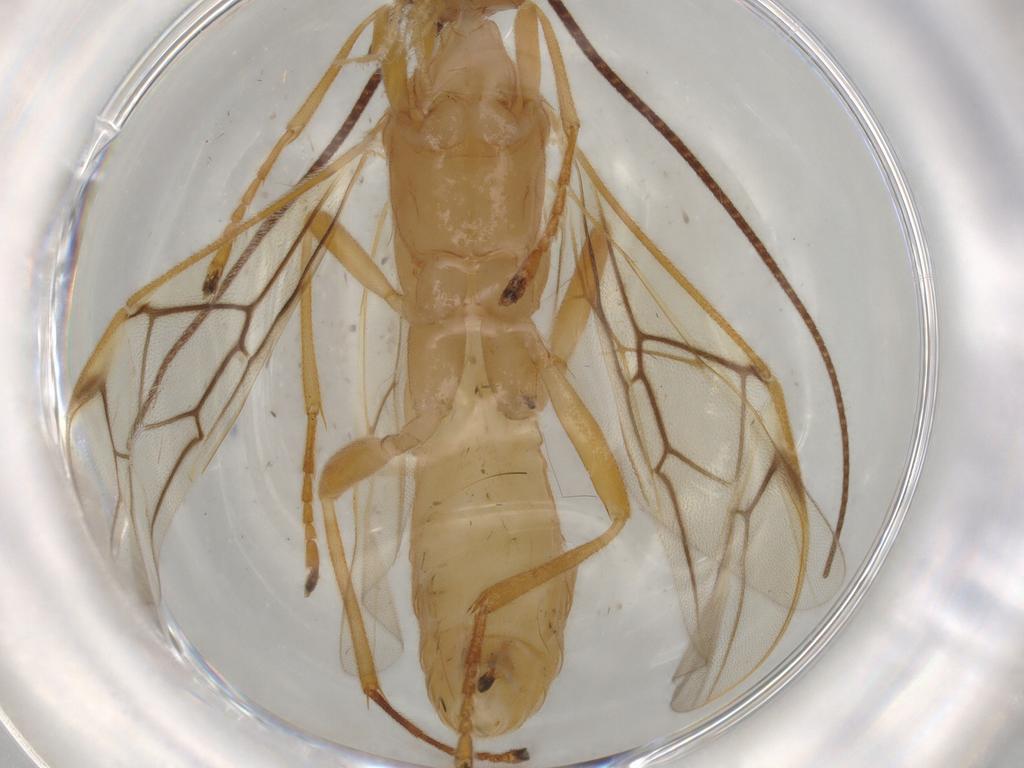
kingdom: Animalia
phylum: Arthropoda
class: Insecta
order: Hymenoptera
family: Braconidae
